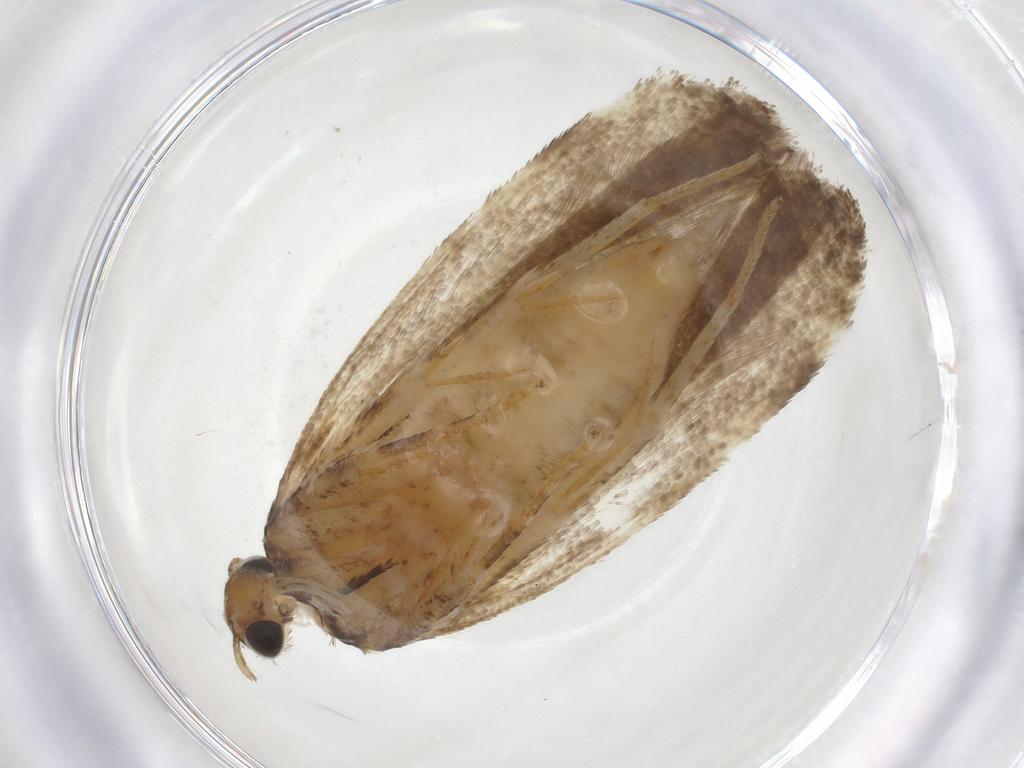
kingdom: Animalia
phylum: Arthropoda
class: Insecta
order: Lepidoptera
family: Gelechiidae
